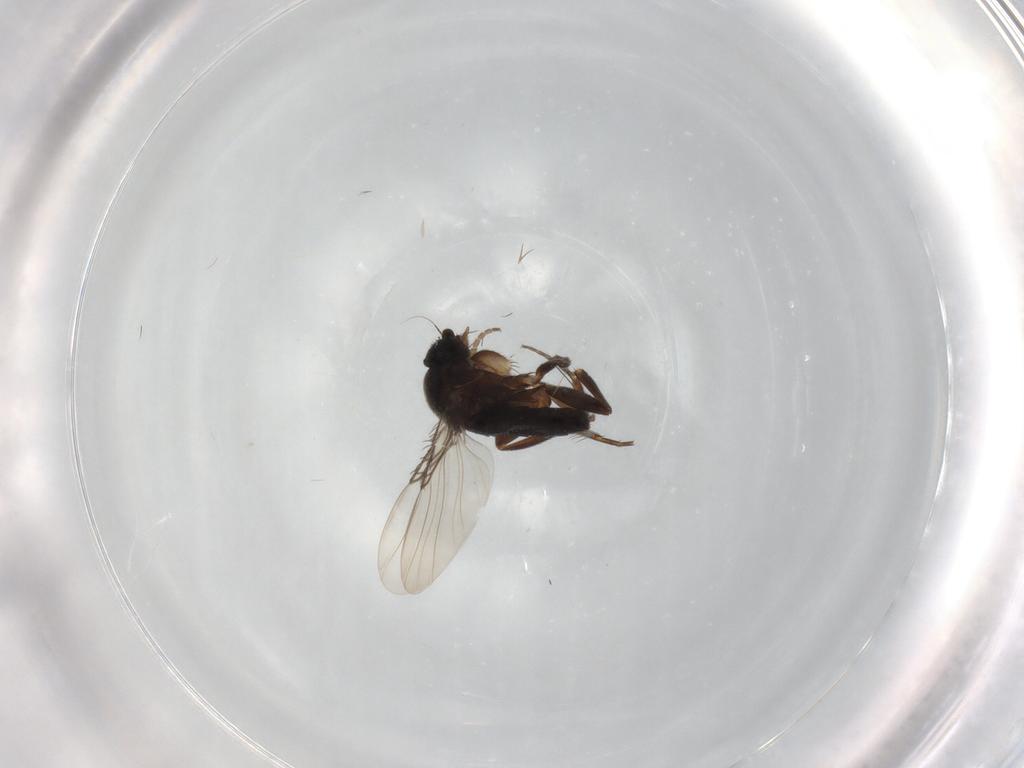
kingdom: Animalia
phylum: Arthropoda
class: Insecta
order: Diptera
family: Phoridae
